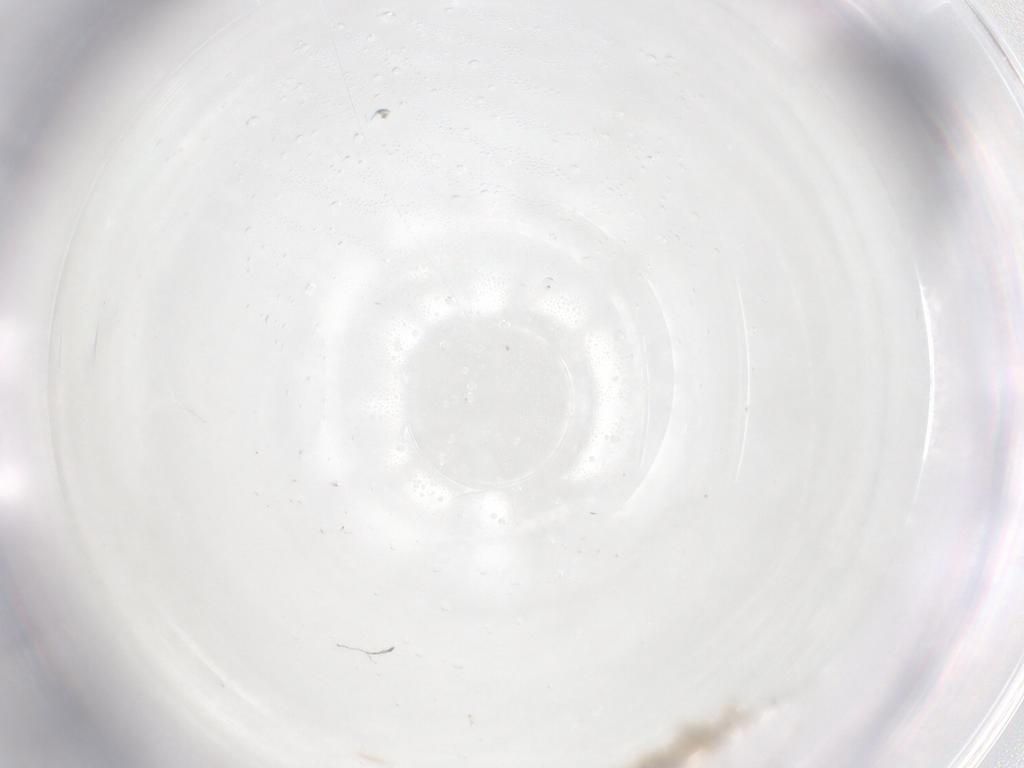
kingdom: Animalia
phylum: Arthropoda
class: Collembola
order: Entomobryomorpha
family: Entomobryidae
